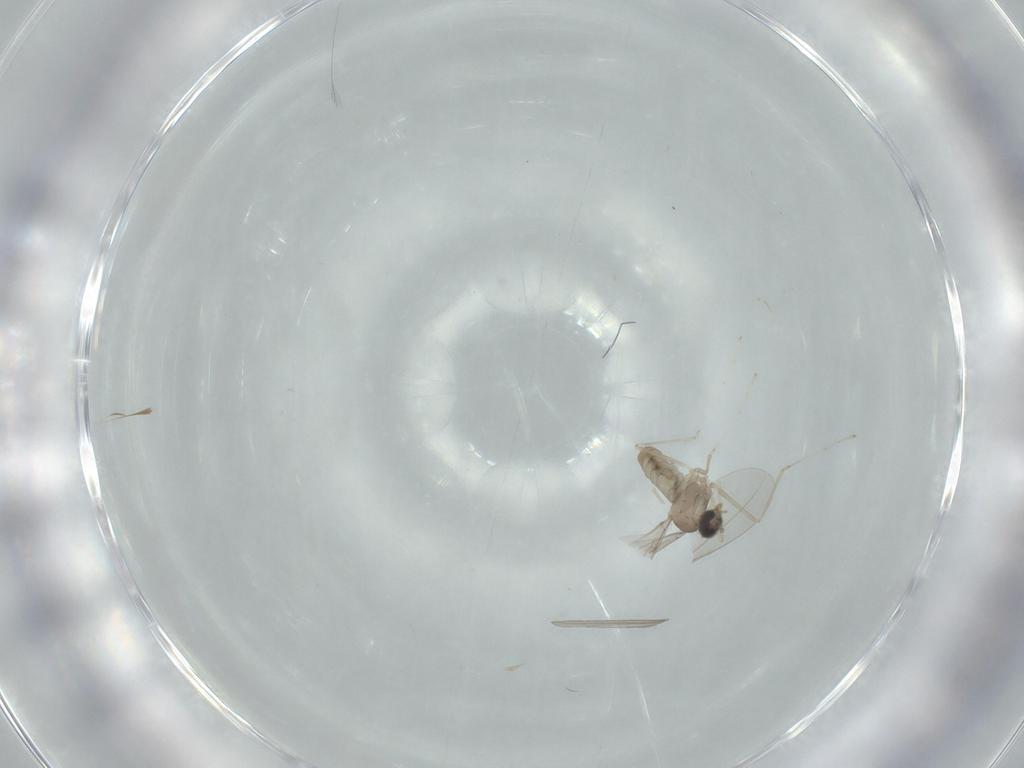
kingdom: Animalia
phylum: Arthropoda
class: Insecta
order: Diptera
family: Cecidomyiidae
